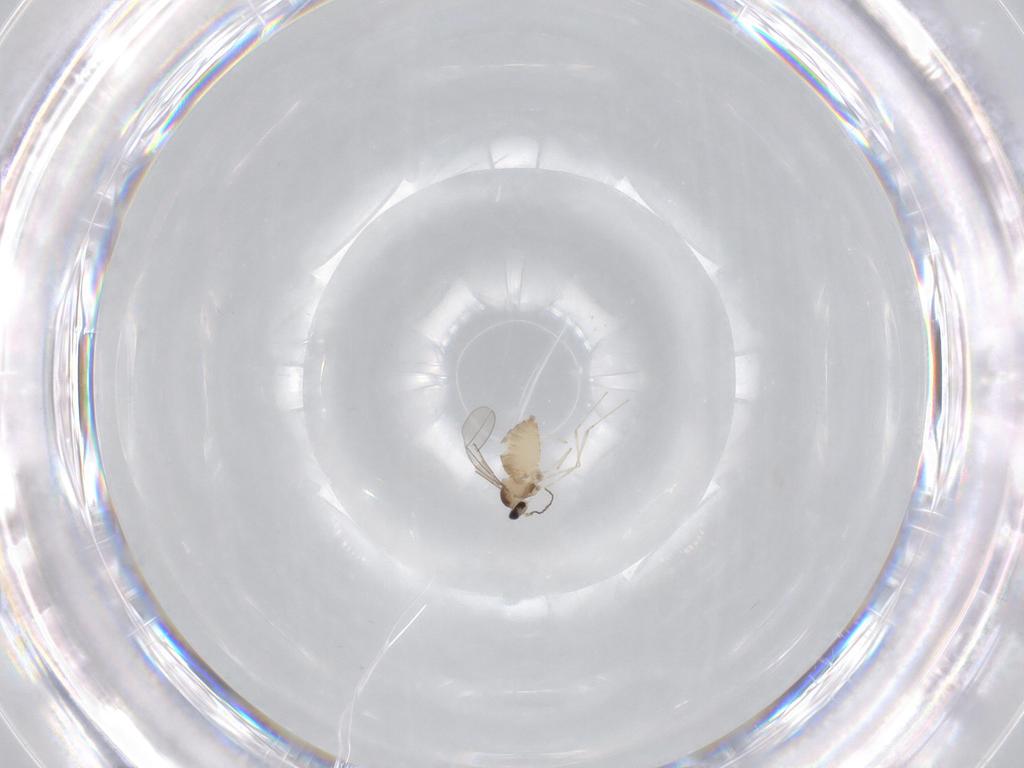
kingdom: Animalia
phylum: Arthropoda
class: Insecta
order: Diptera
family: Cecidomyiidae
